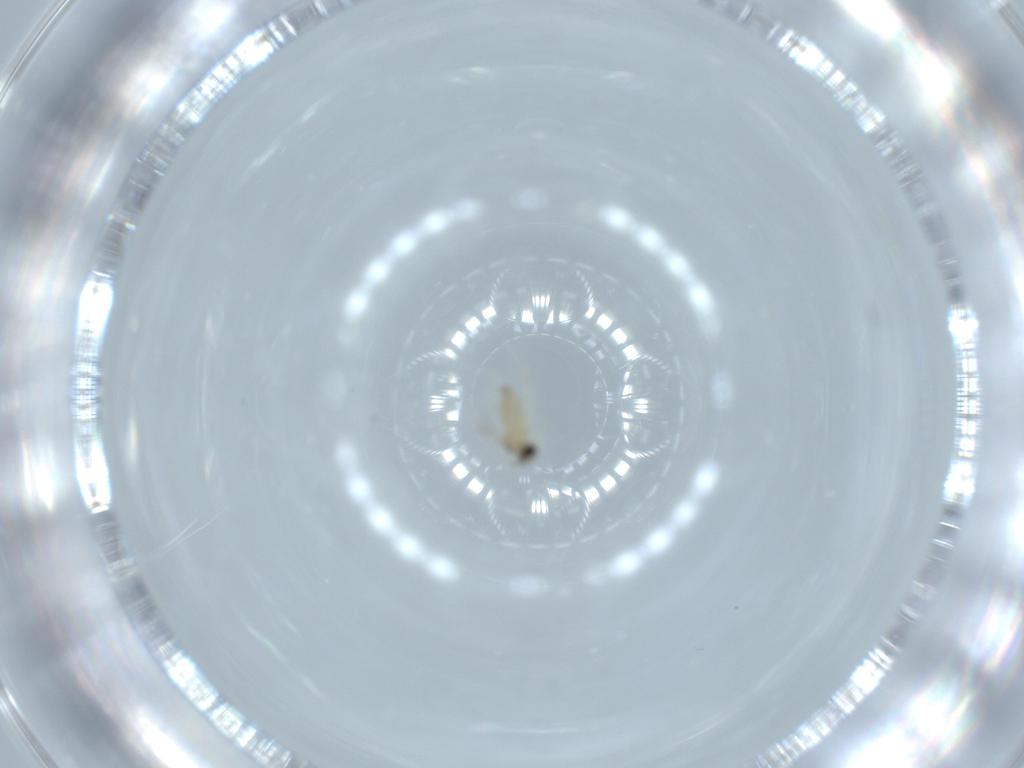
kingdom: Animalia
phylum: Arthropoda
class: Insecta
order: Diptera
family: Cecidomyiidae
